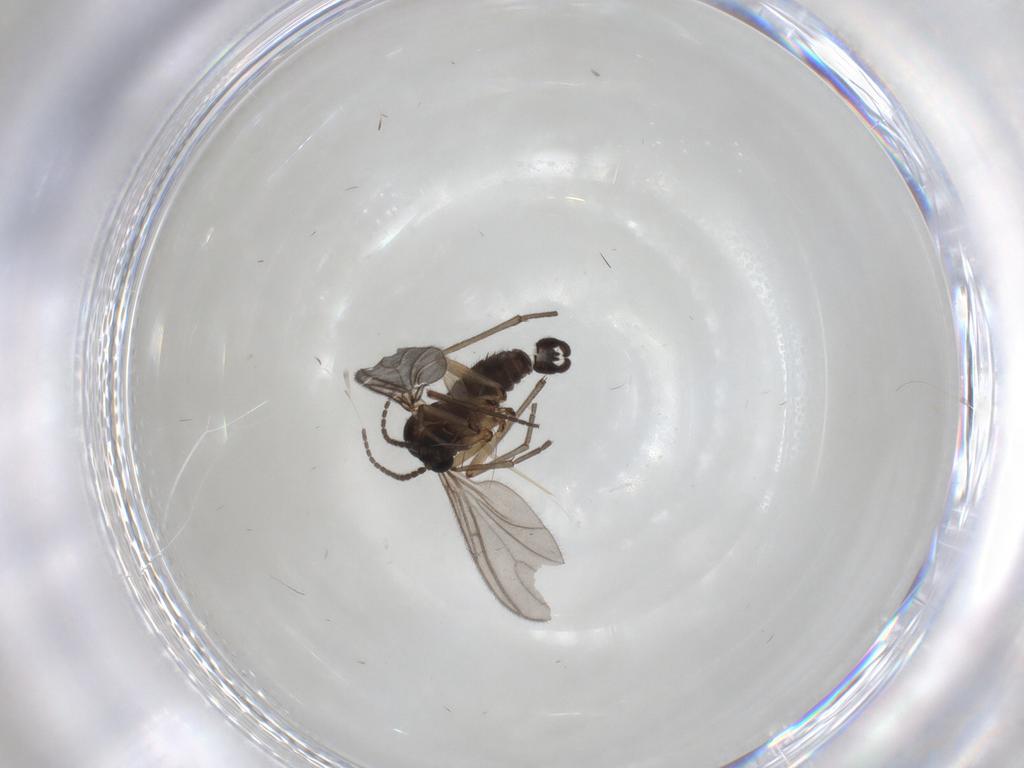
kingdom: Animalia
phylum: Arthropoda
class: Insecta
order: Diptera
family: Sciaridae
